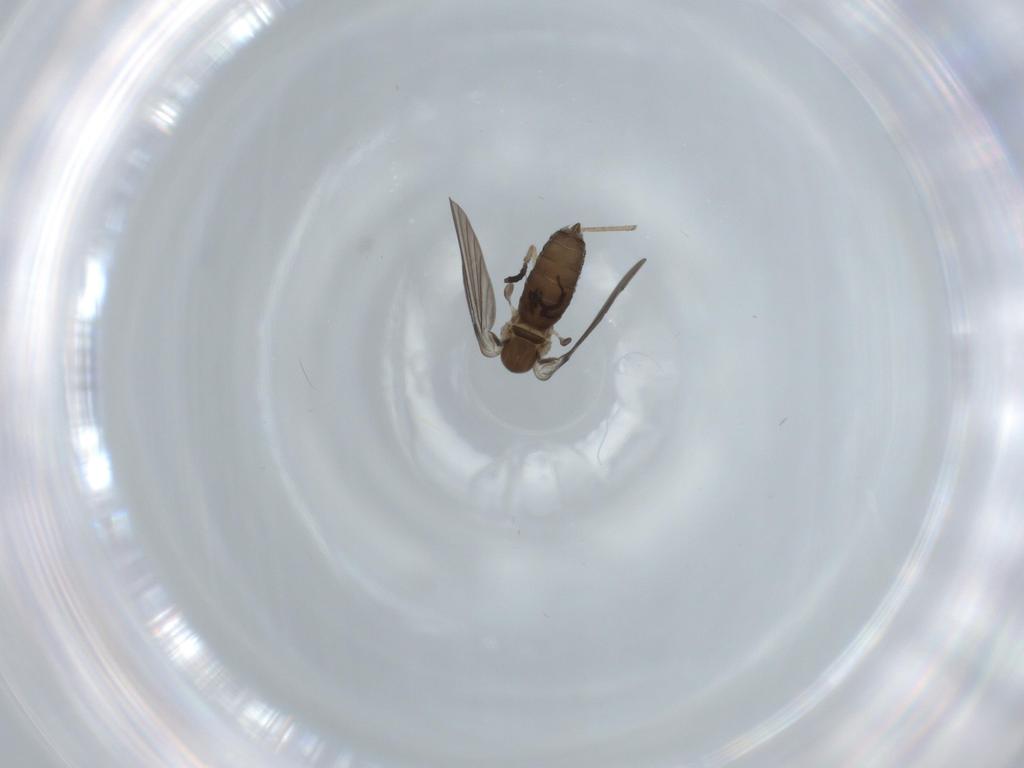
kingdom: Animalia
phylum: Arthropoda
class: Insecta
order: Diptera
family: Psychodidae
